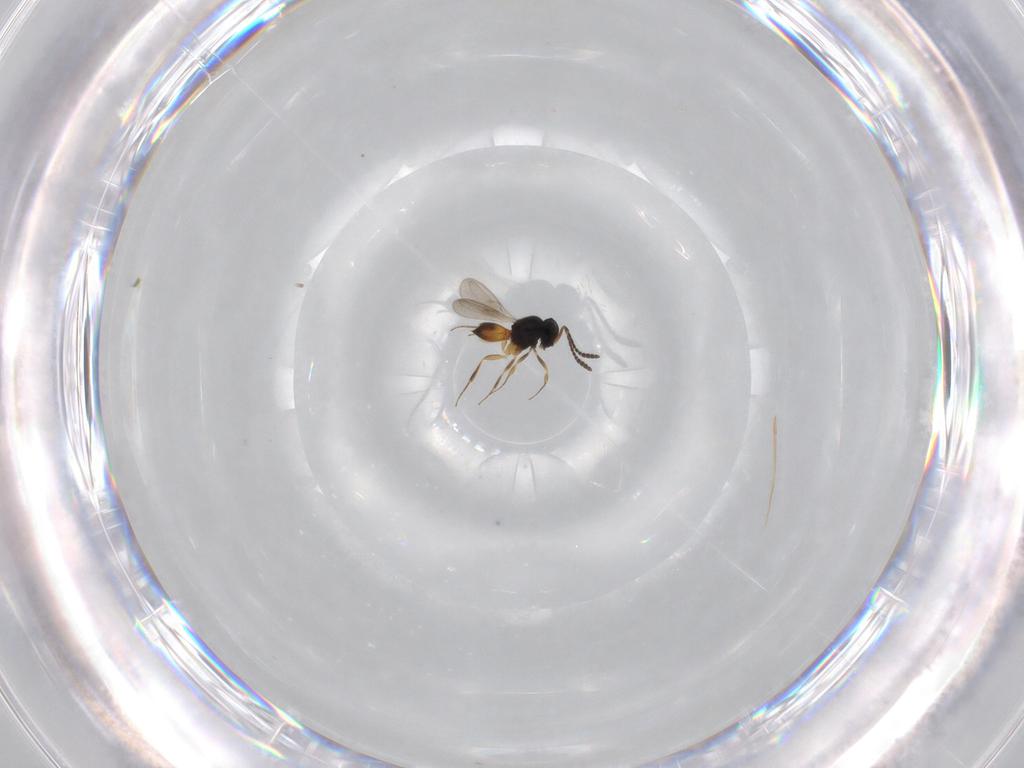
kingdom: Animalia
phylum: Arthropoda
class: Insecta
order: Hymenoptera
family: Scelionidae
